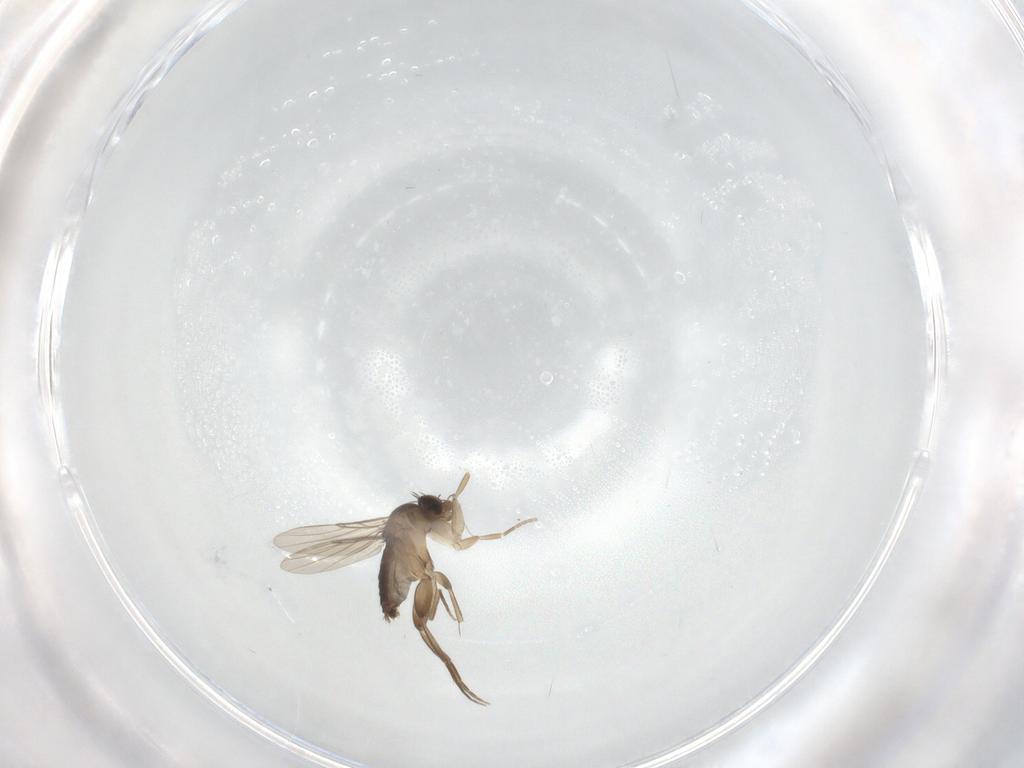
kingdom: Animalia
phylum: Arthropoda
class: Insecta
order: Diptera
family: Phoridae
